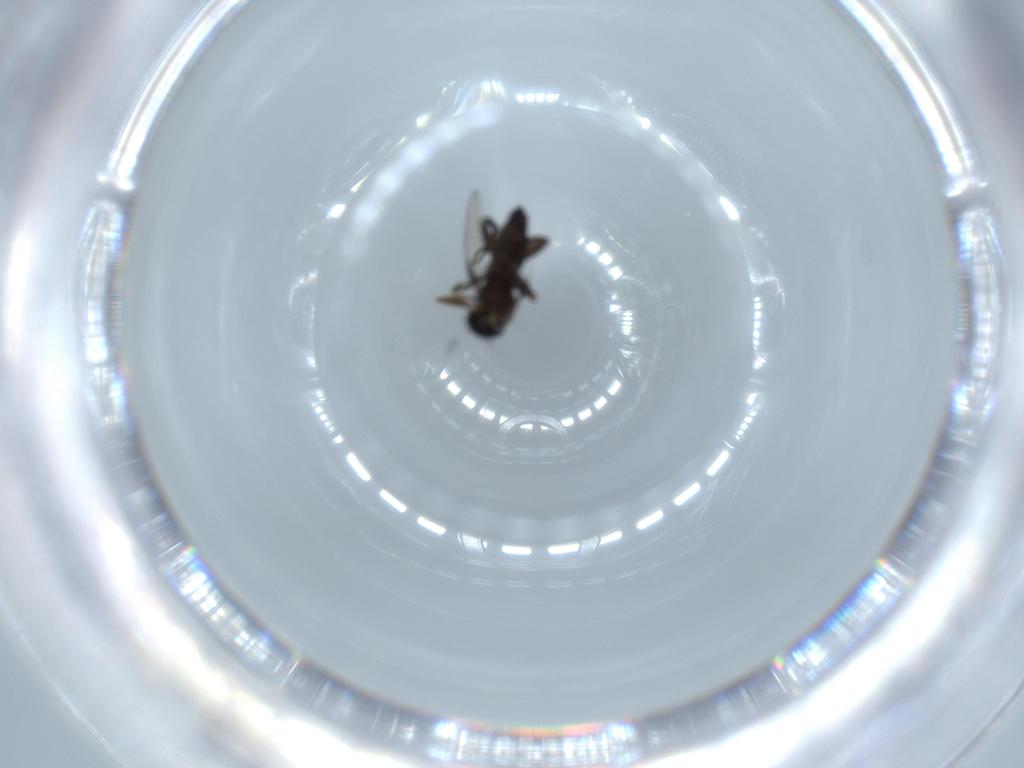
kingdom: Animalia
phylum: Arthropoda
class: Insecta
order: Diptera
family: Phoridae
